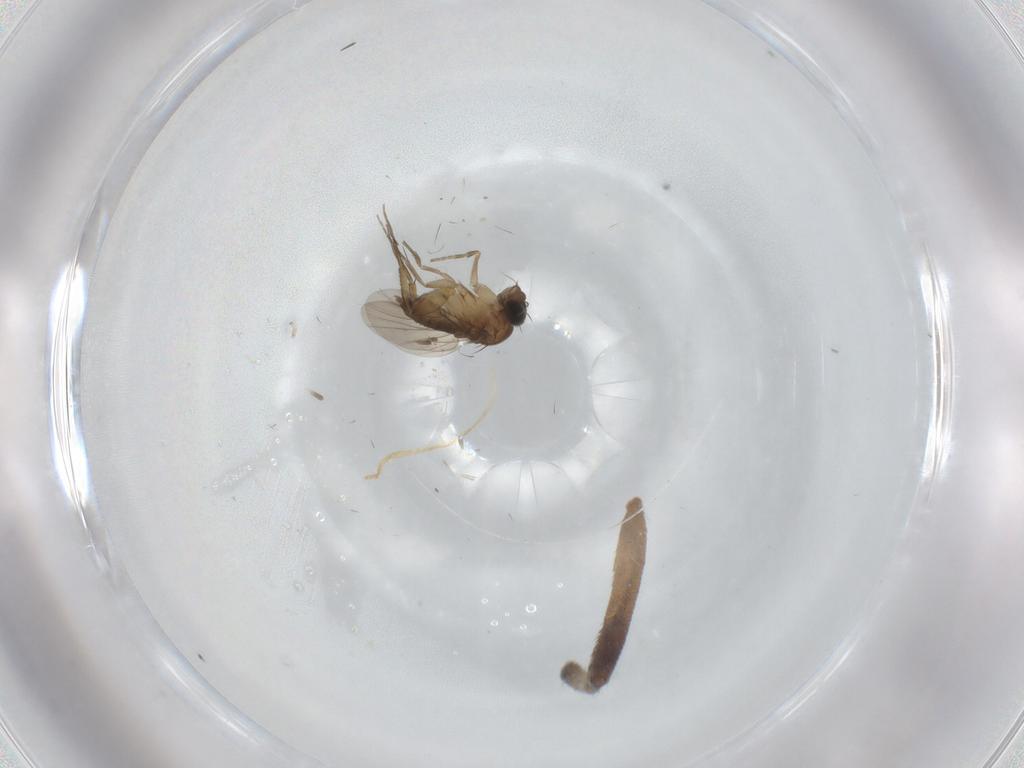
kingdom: Animalia
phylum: Arthropoda
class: Insecta
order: Diptera
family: Phoridae
